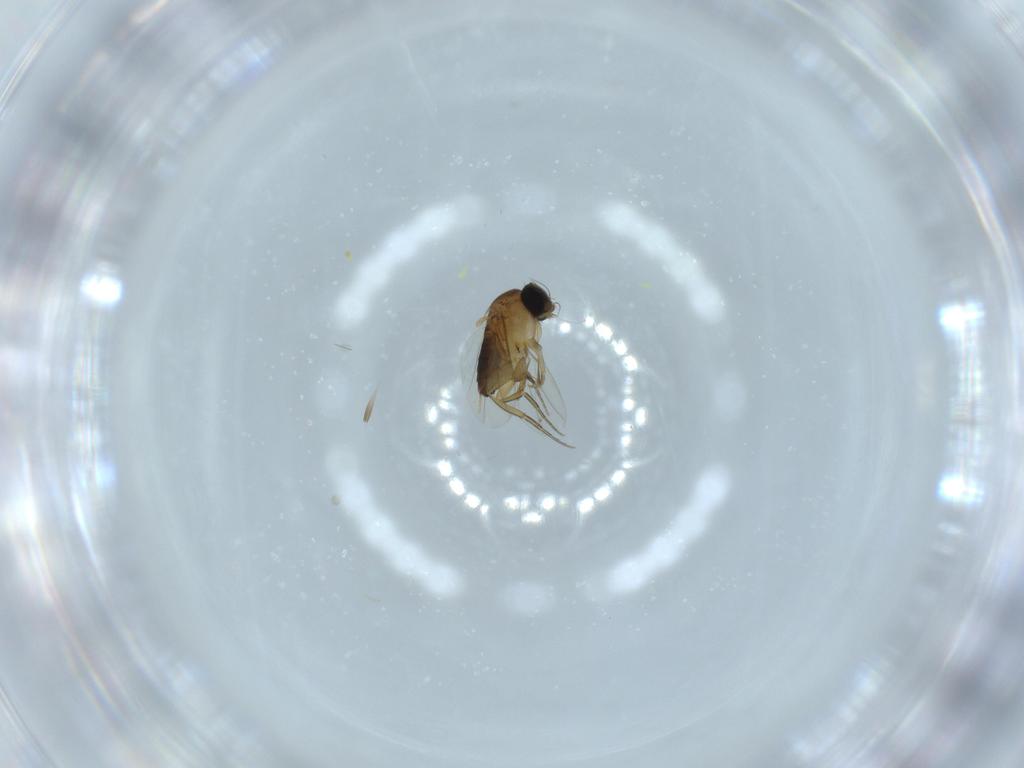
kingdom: Animalia
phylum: Arthropoda
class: Insecta
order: Diptera
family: Phoridae
